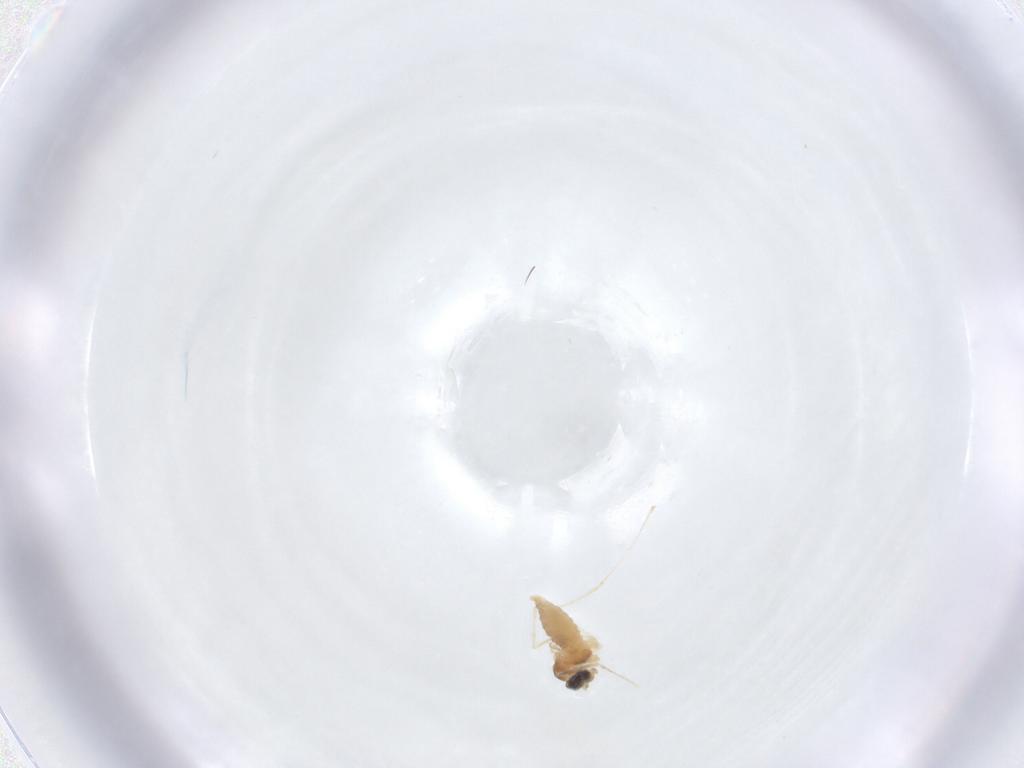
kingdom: Animalia
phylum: Arthropoda
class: Insecta
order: Diptera
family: Cecidomyiidae
